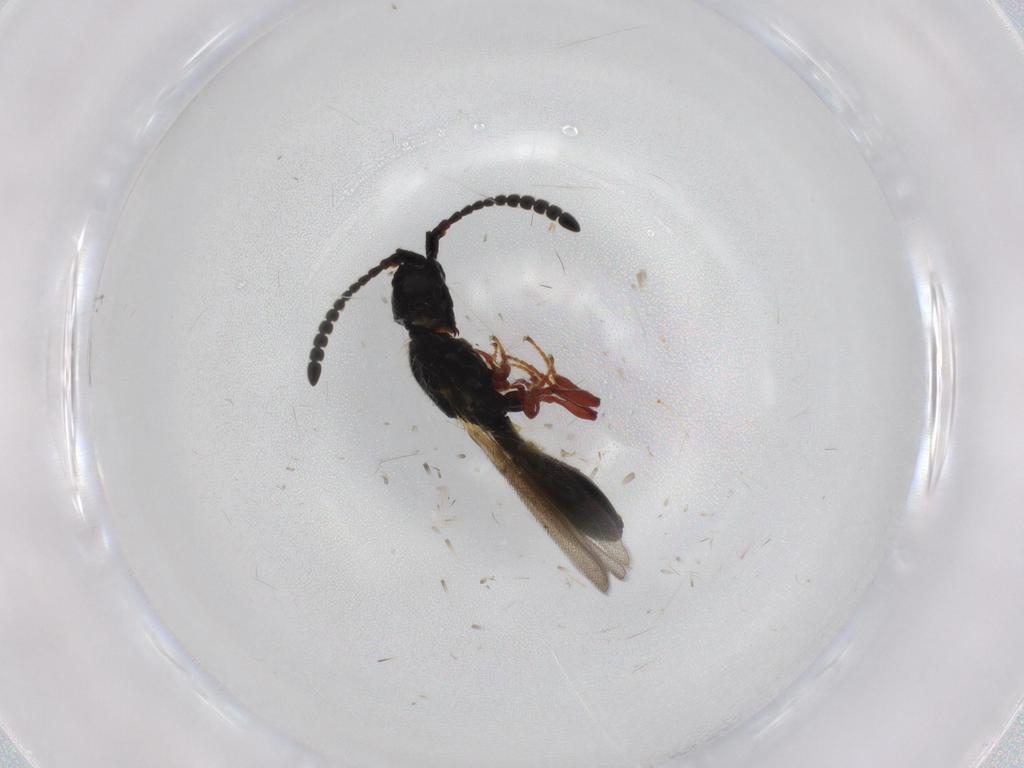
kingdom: Animalia
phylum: Arthropoda
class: Insecta
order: Hymenoptera
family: Diapriidae
